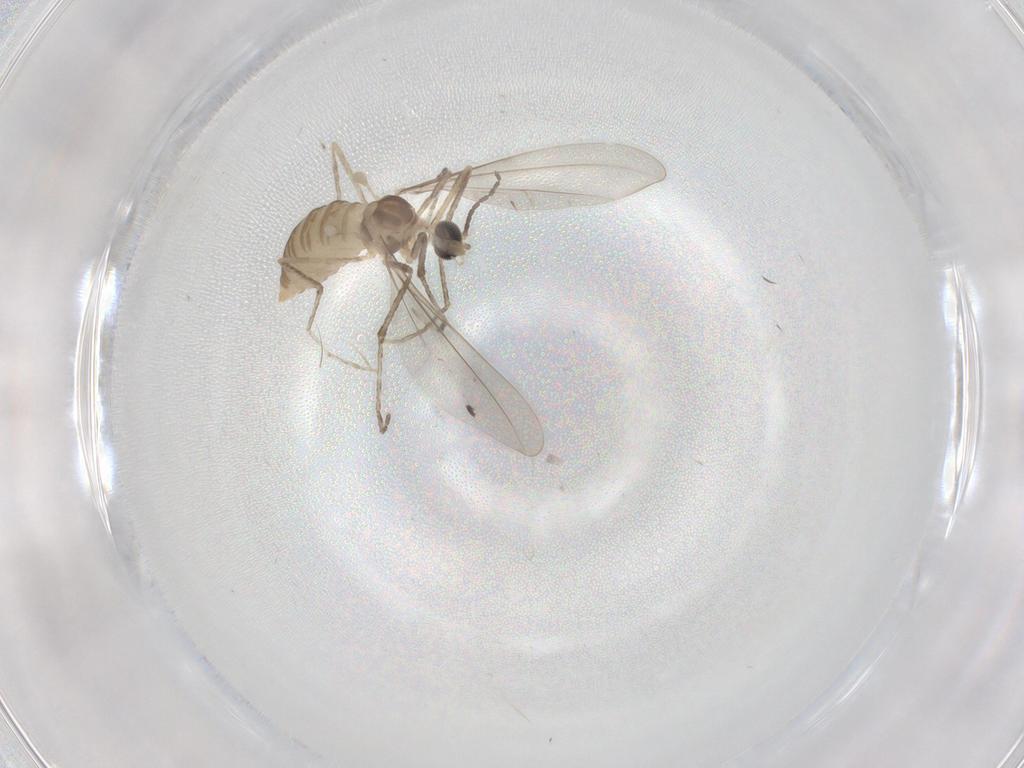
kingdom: Animalia
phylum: Arthropoda
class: Insecta
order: Diptera
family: Cecidomyiidae
